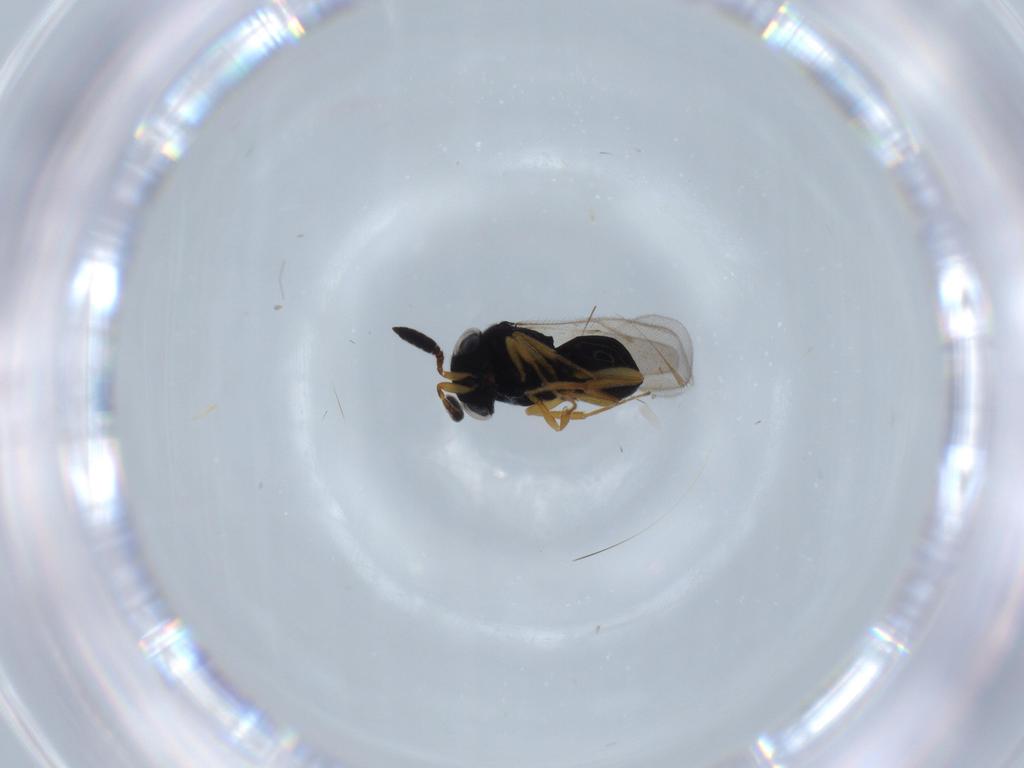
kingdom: Animalia
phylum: Arthropoda
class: Insecta
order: Hymenoptera
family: Scelionidae
